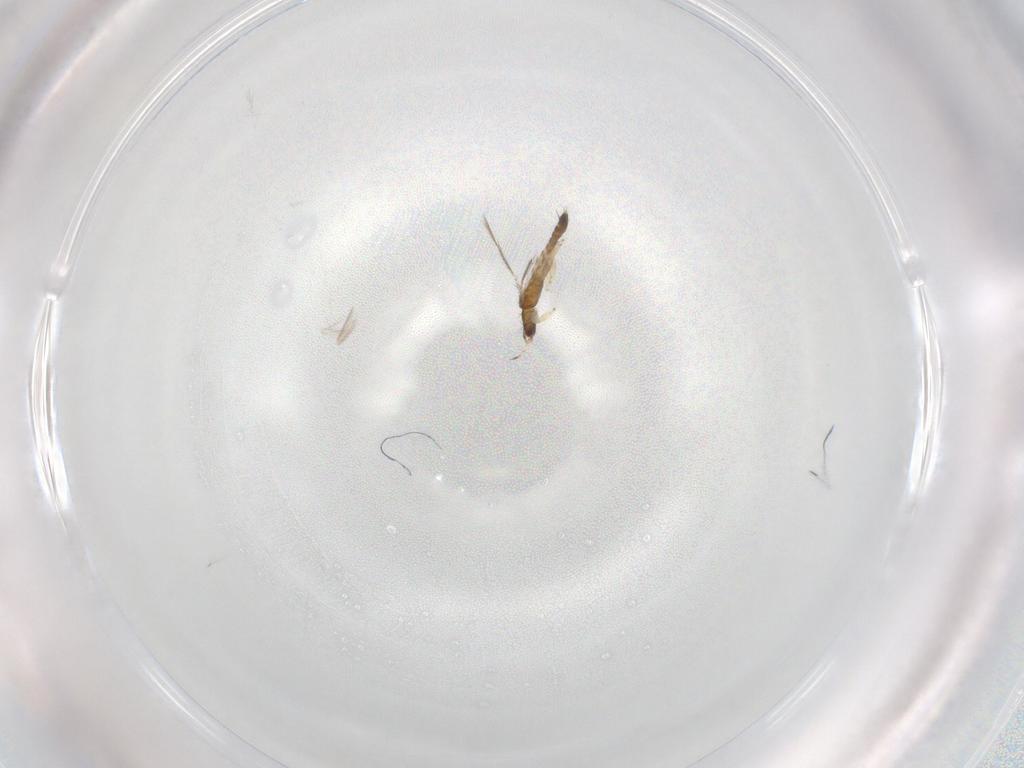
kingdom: Animalia
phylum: Arthropoda
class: Insecta
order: Thysanoptera
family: Thripidae
